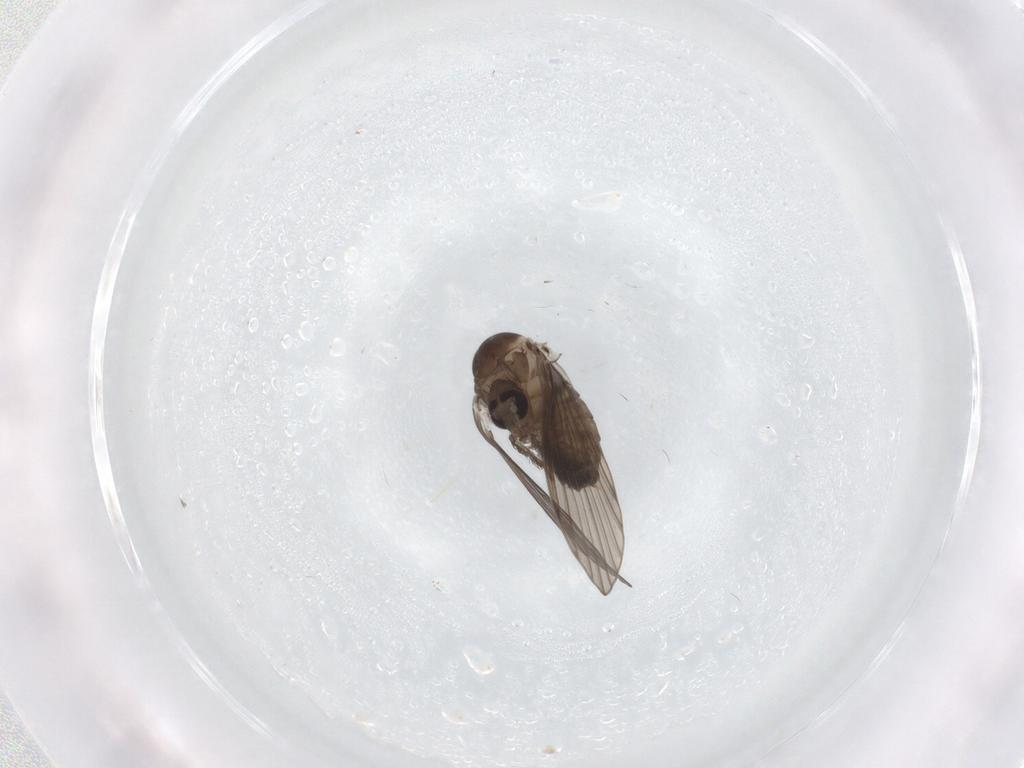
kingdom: Animalia
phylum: Arthropoda
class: Insecta
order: Diptera
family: Psychodidae
